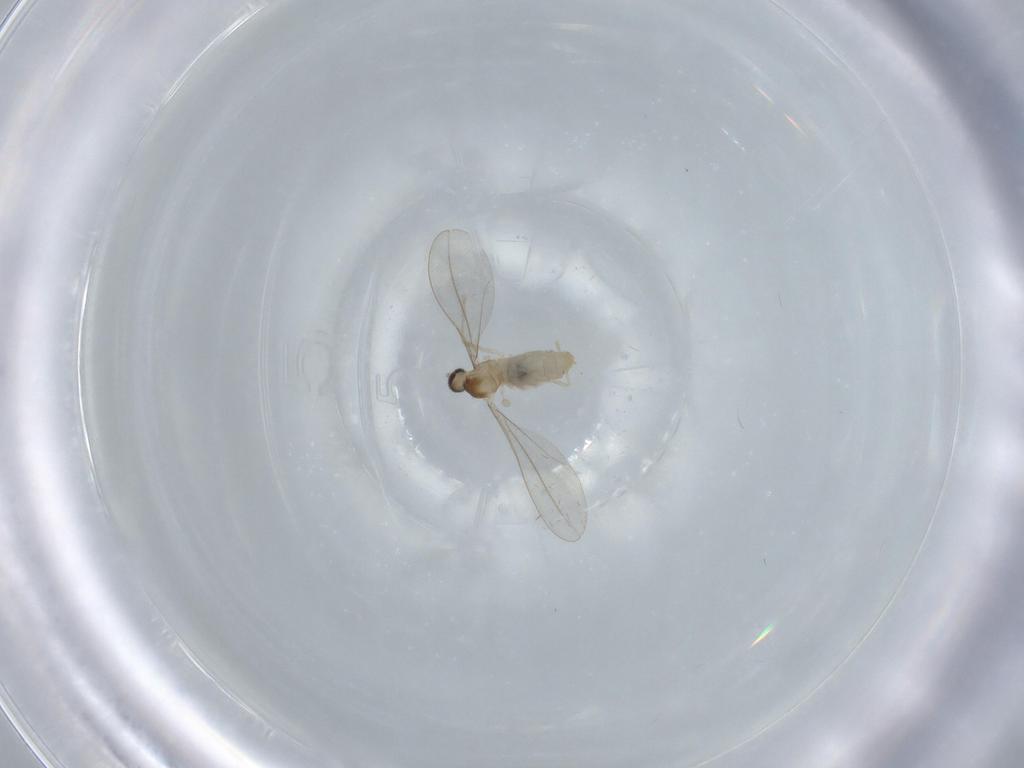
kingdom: Animalia
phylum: Arthropoda
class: Insecta
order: Diptera
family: Cecidomyiidae
